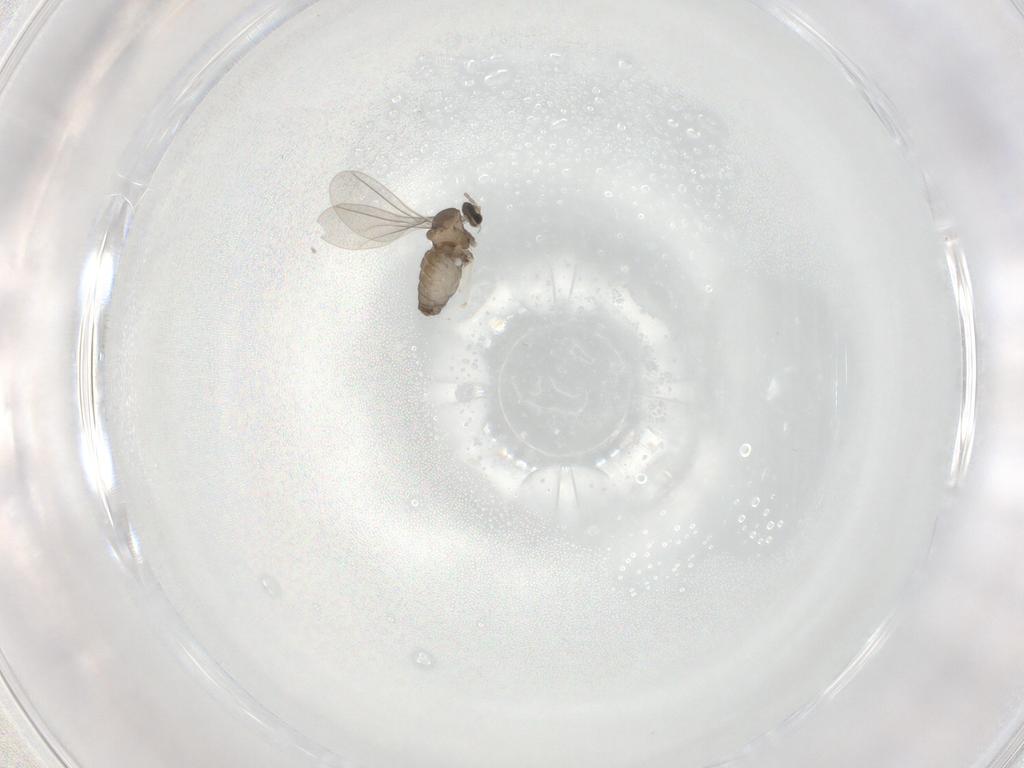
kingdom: Animalia
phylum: Arthropoda
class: Insecta
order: Diptera
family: Cecidomyiidae
